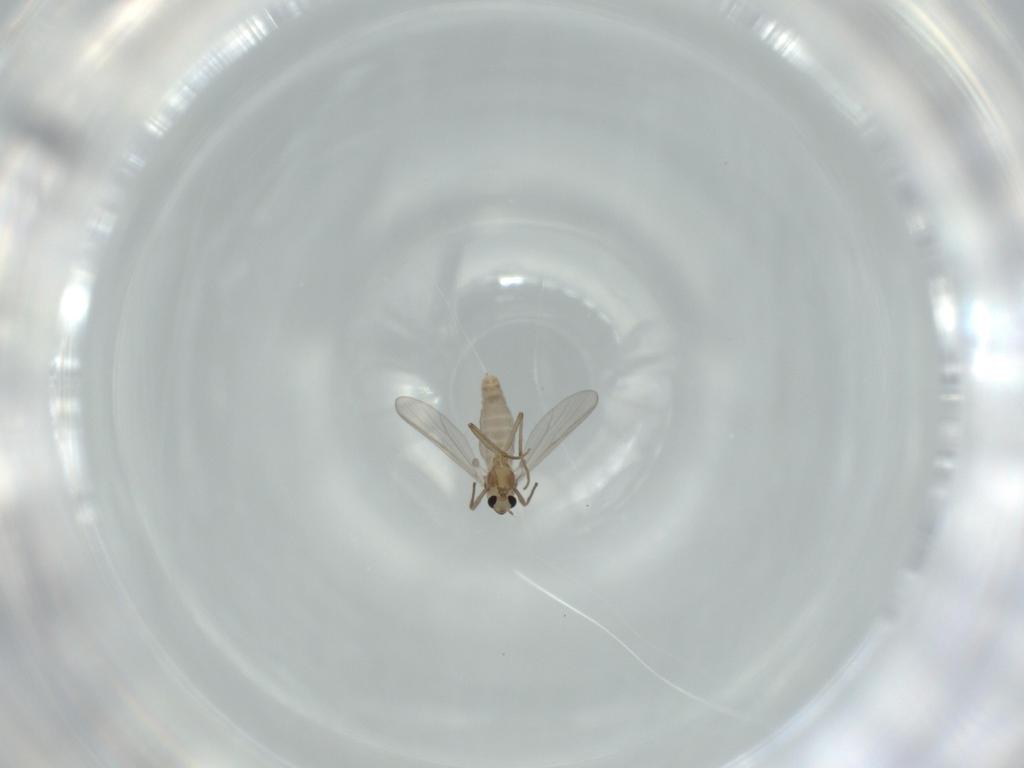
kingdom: Animalia
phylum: Arthropoda
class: Insecta
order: Diptera
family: Chironomidae
